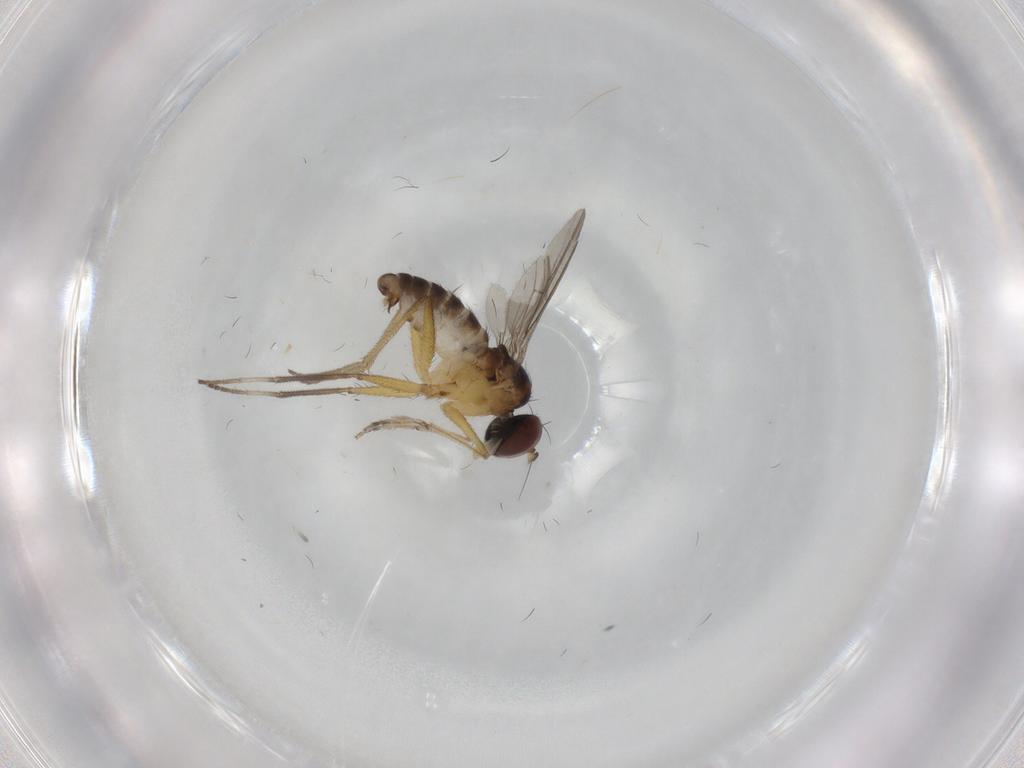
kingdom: Animalia
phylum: Arthropoda
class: Insecta
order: Diptera
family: Dolichopodidae
